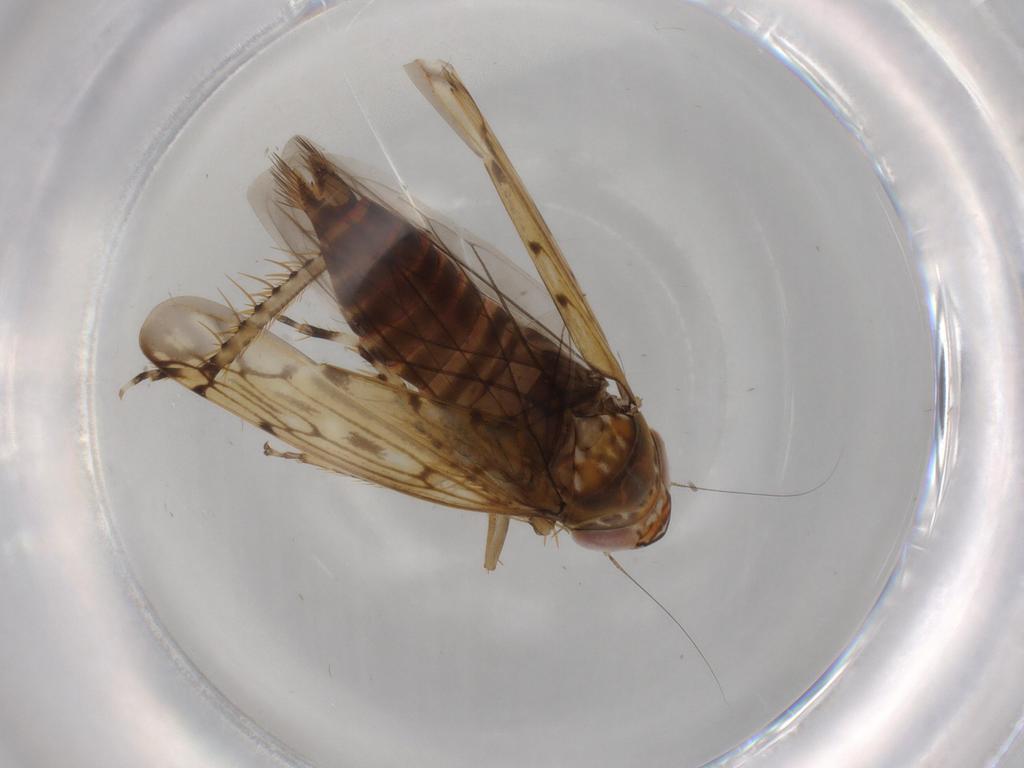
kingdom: Animalia
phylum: Arthropoda
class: Insecta
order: Hemiptera
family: Cicadellidae
